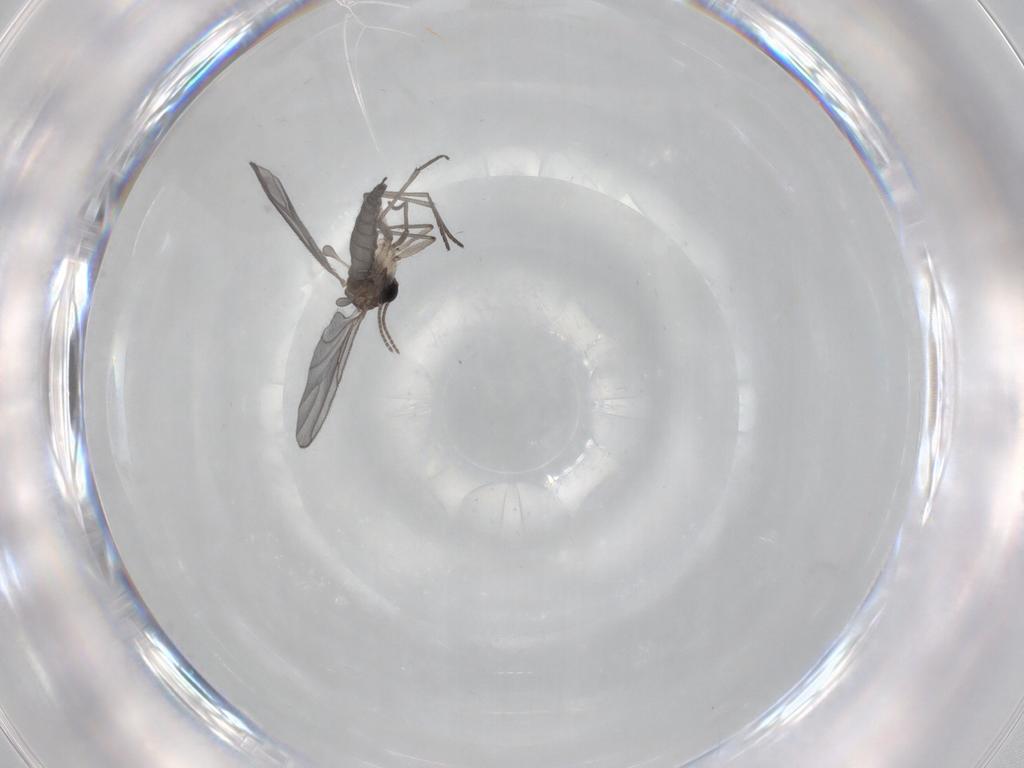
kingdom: Animalia
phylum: Arthropoda
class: Insecta
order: Diptera
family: Sciaridae
